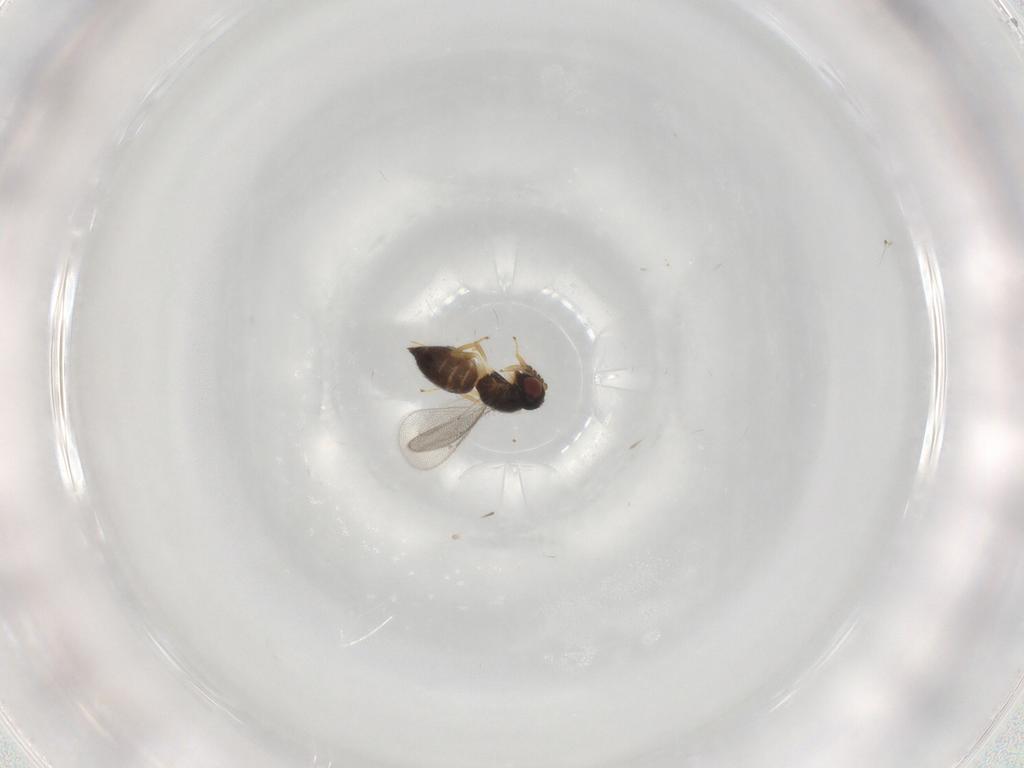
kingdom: Animalia
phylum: Arthropoda
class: Insecta
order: Hymenoptera
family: Eulophidae
